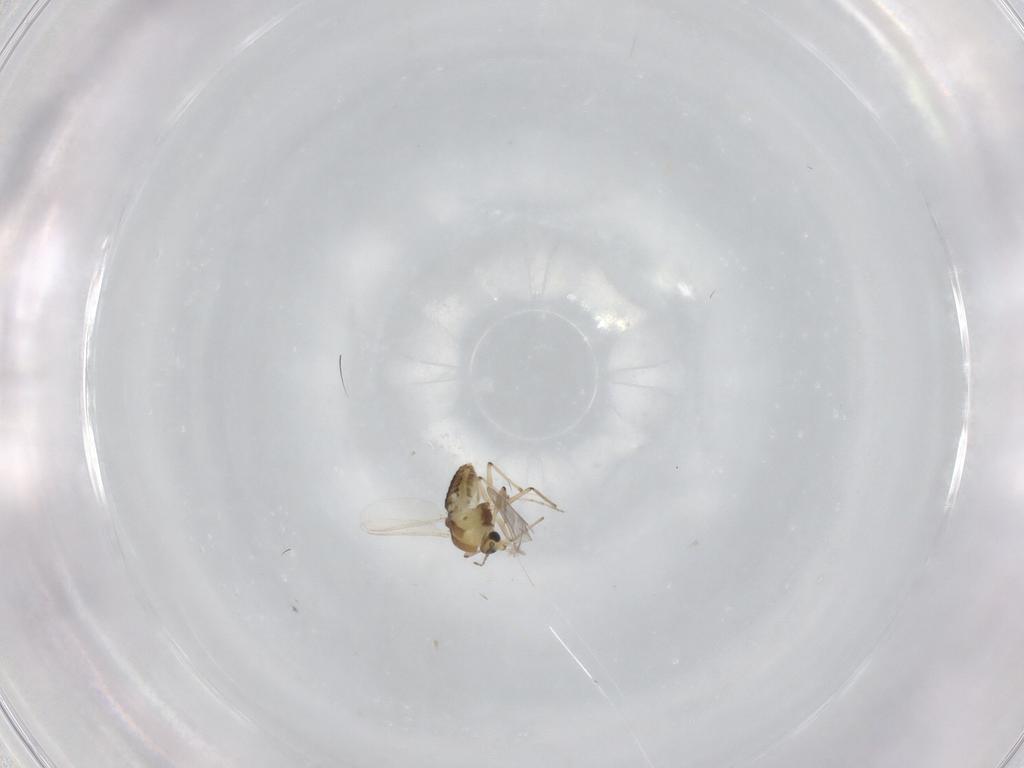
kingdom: Animalia
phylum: Arthropoda
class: Insecta
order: Diptera
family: Chironomidae
